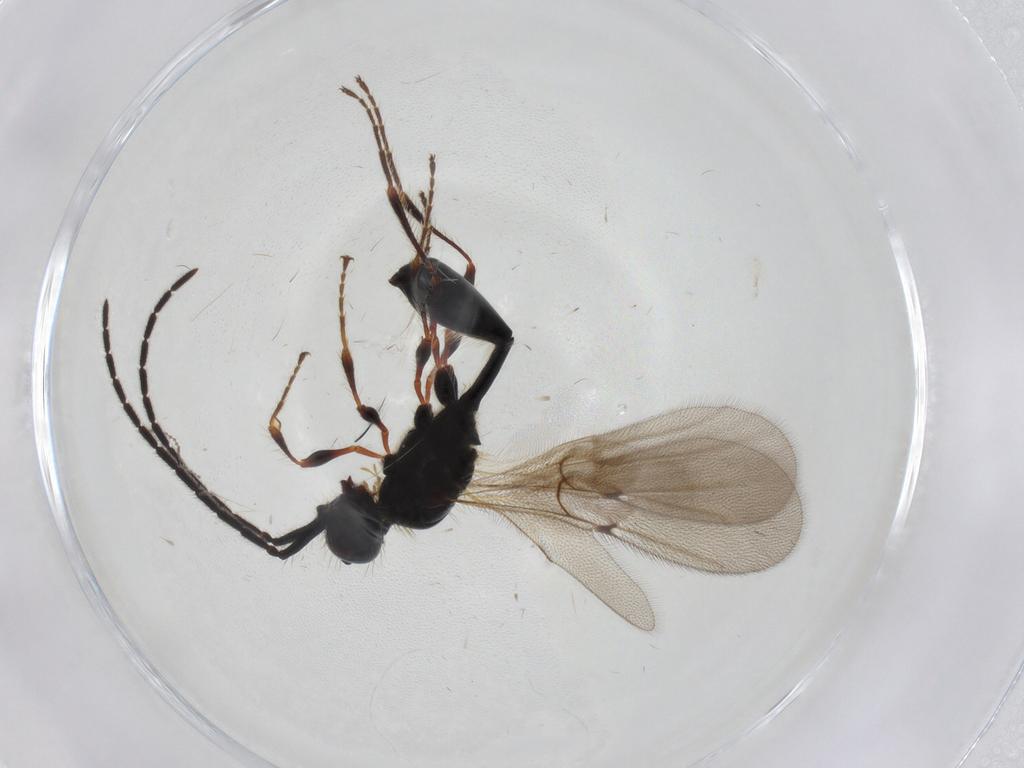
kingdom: Animalia
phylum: Arthropoda
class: Insecta
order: Hymenoptera
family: Diapriidae
